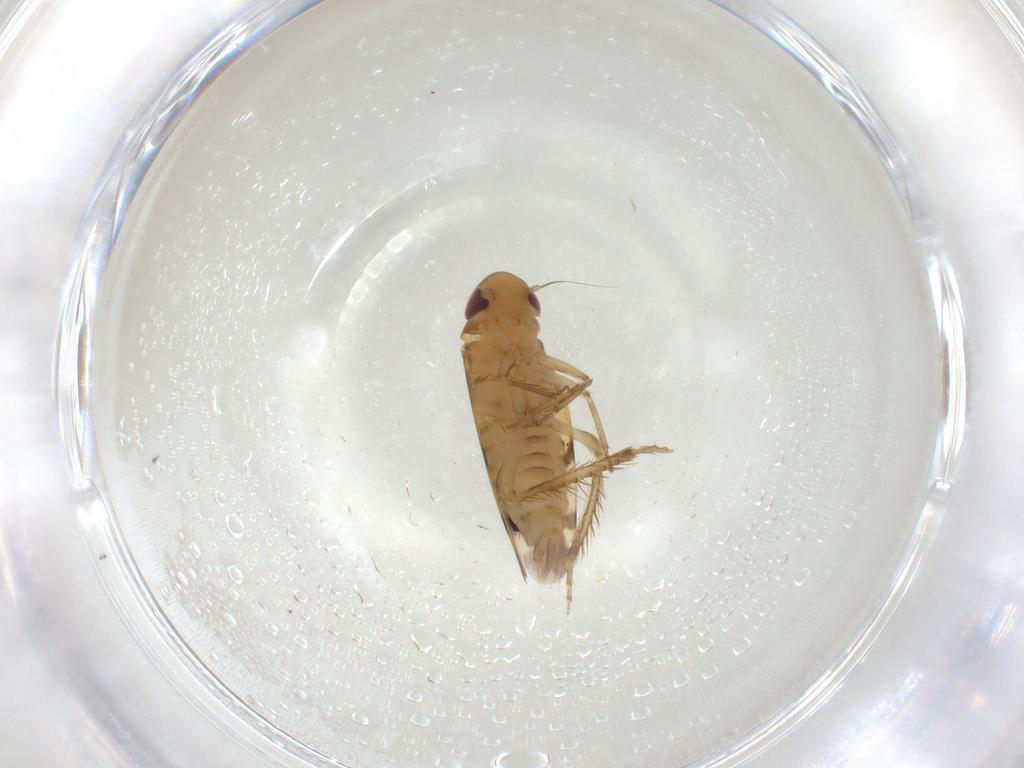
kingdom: Animalia
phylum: Arthropoda
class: Insecta
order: Hemiptera
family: Cicadellidae
